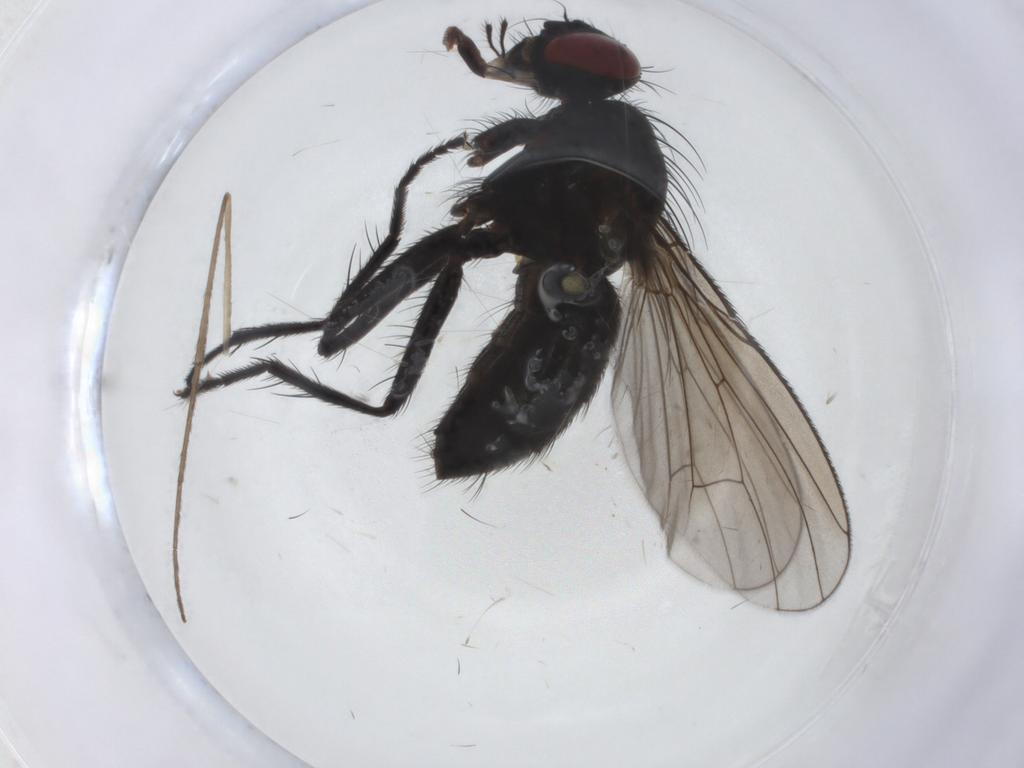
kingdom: Animalia
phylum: Arthropoda
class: Insecta
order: Diptera
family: Muscidae
